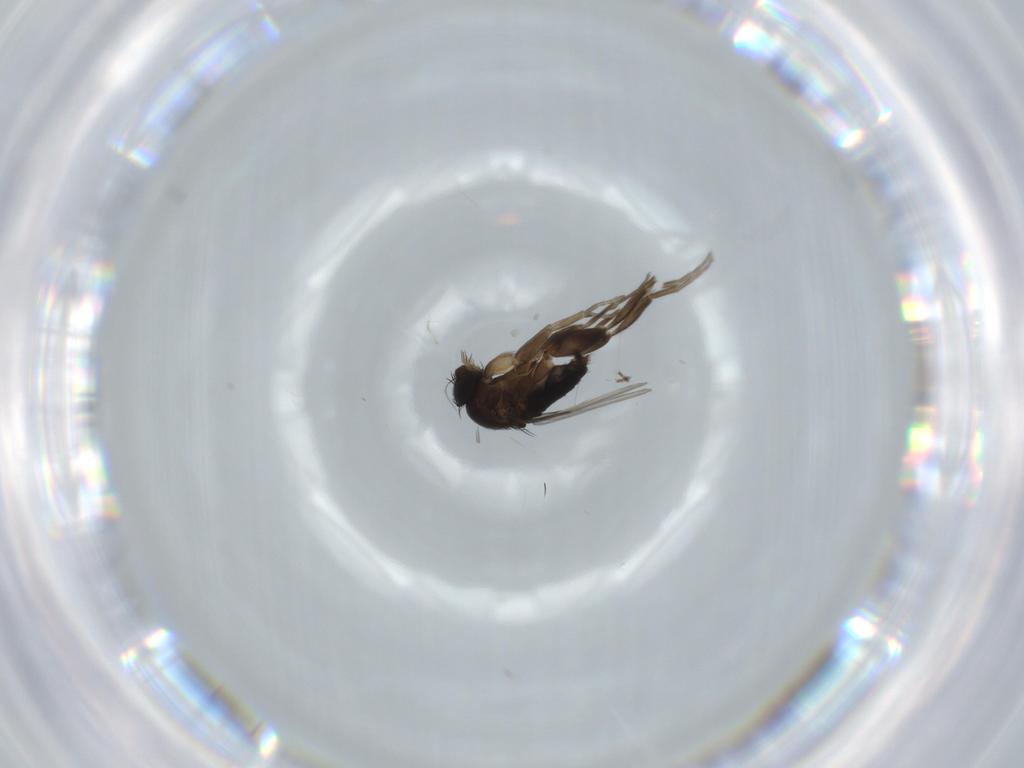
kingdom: Animalia
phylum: Arthropoda
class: Insecta
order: Diptera
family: Phoridae
